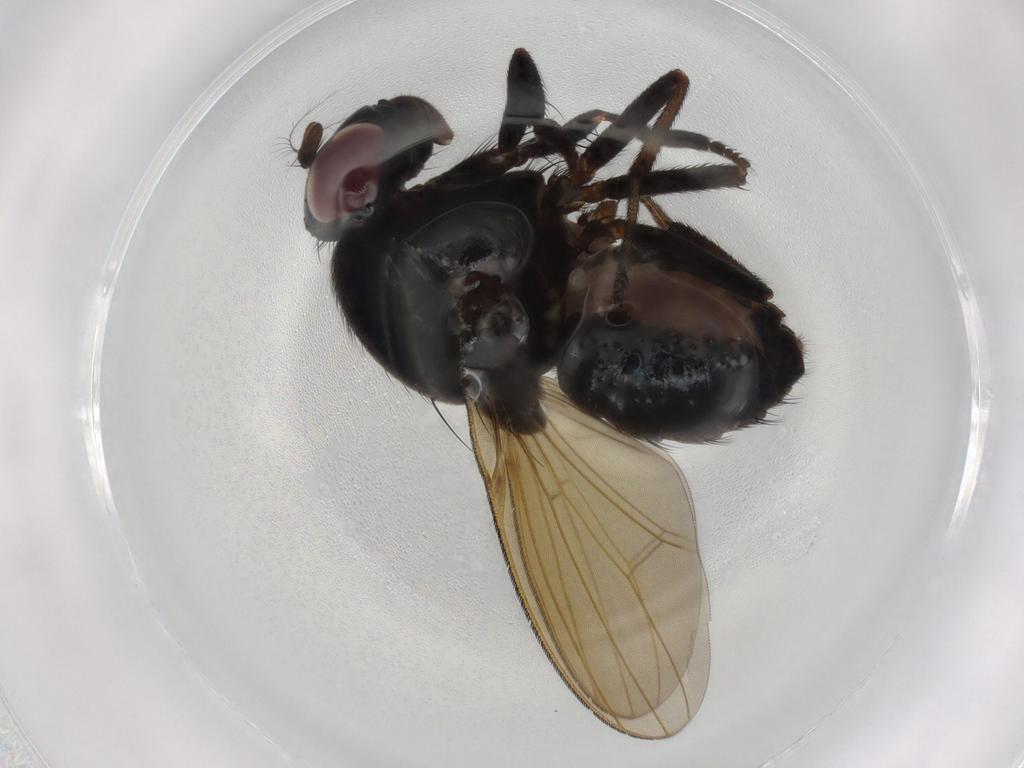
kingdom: Animalia
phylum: Arthropoda
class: Insecta
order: Diptera
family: Lauxaniidae
